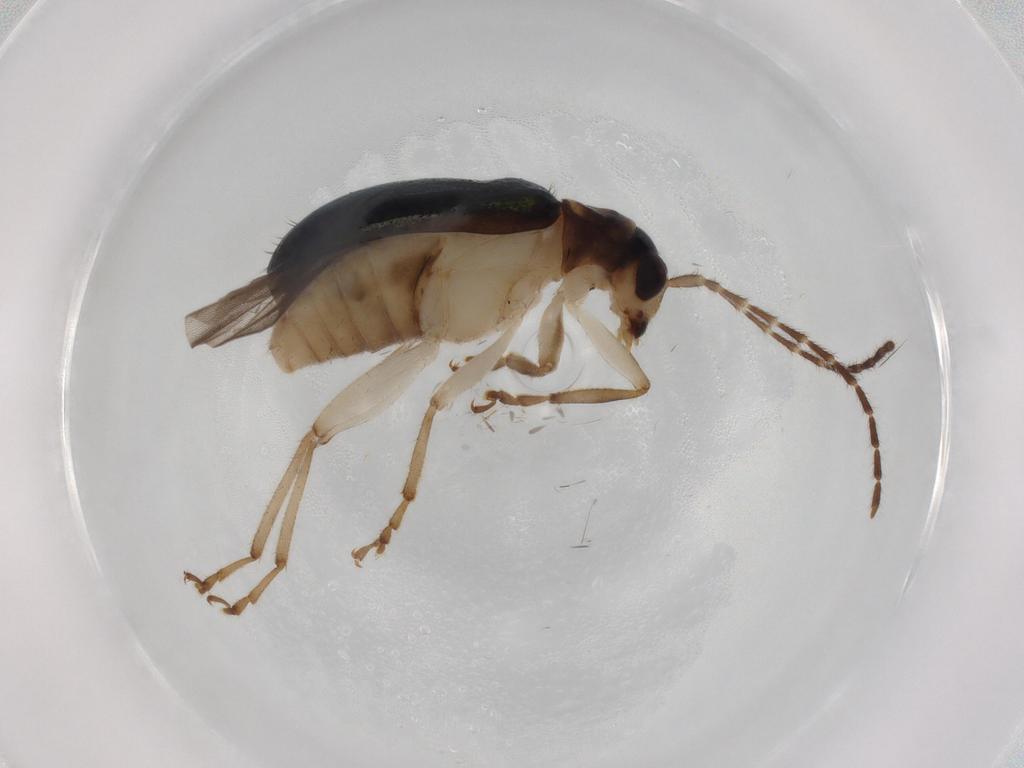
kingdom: Animalia
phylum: Arthropoda
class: Insecta
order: Coleoptera
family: Chrysomelidae
